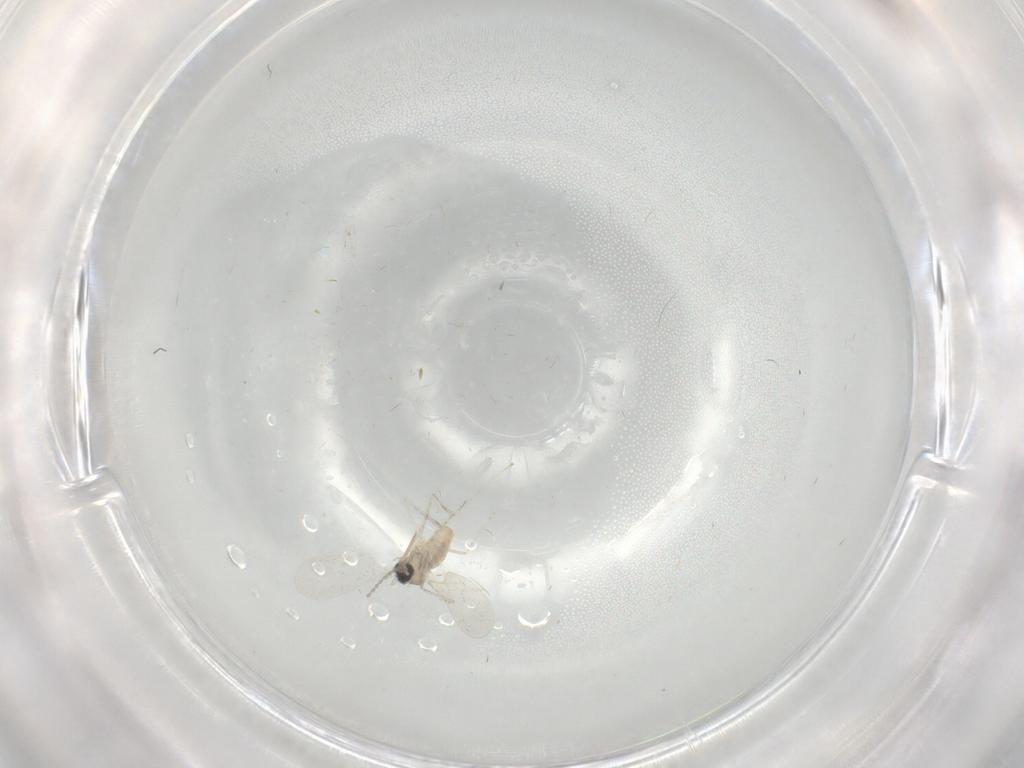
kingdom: Animalia
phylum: Arthropoda
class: Insecta
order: Diptera
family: Cecidomyiidae
